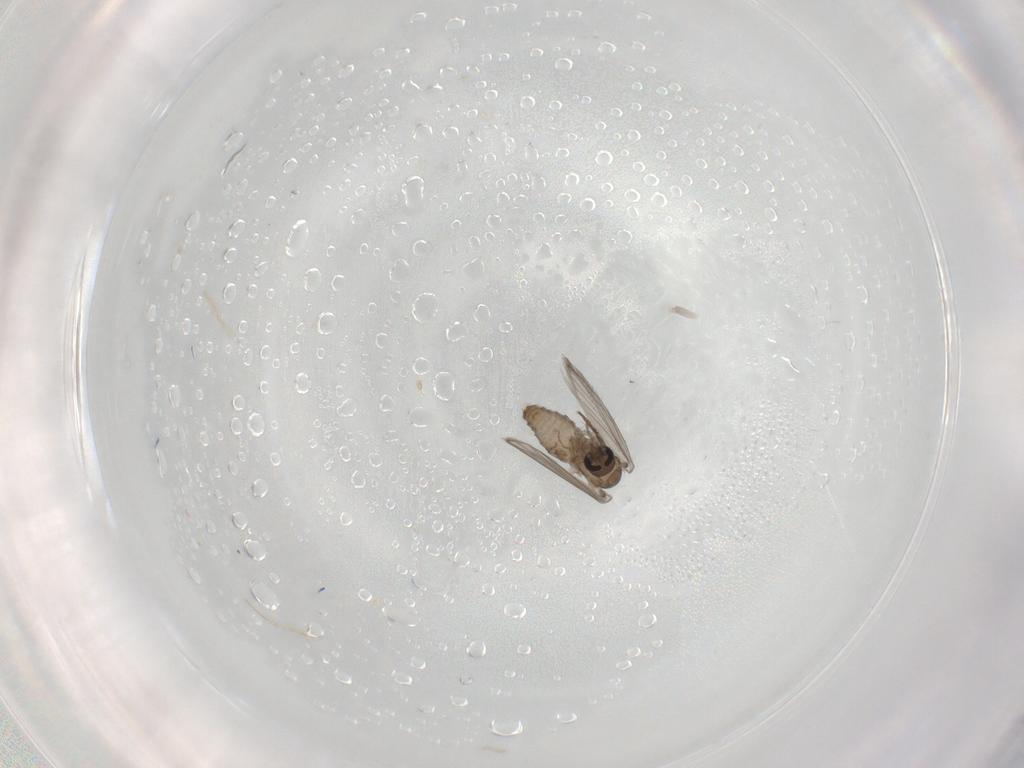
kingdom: Animalia
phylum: Arthropoda
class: Insecta
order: Diptera
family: Psychodidae
